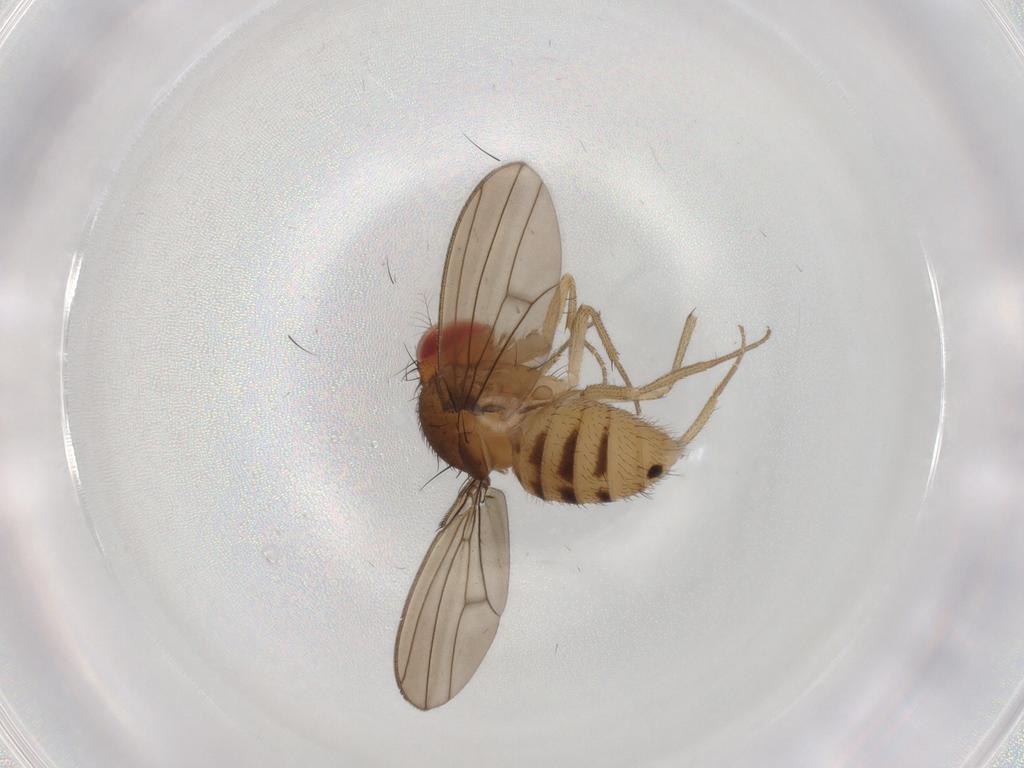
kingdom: Animalia
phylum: Arthropoda
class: Insecta
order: Diptera
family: Drosophilidae
